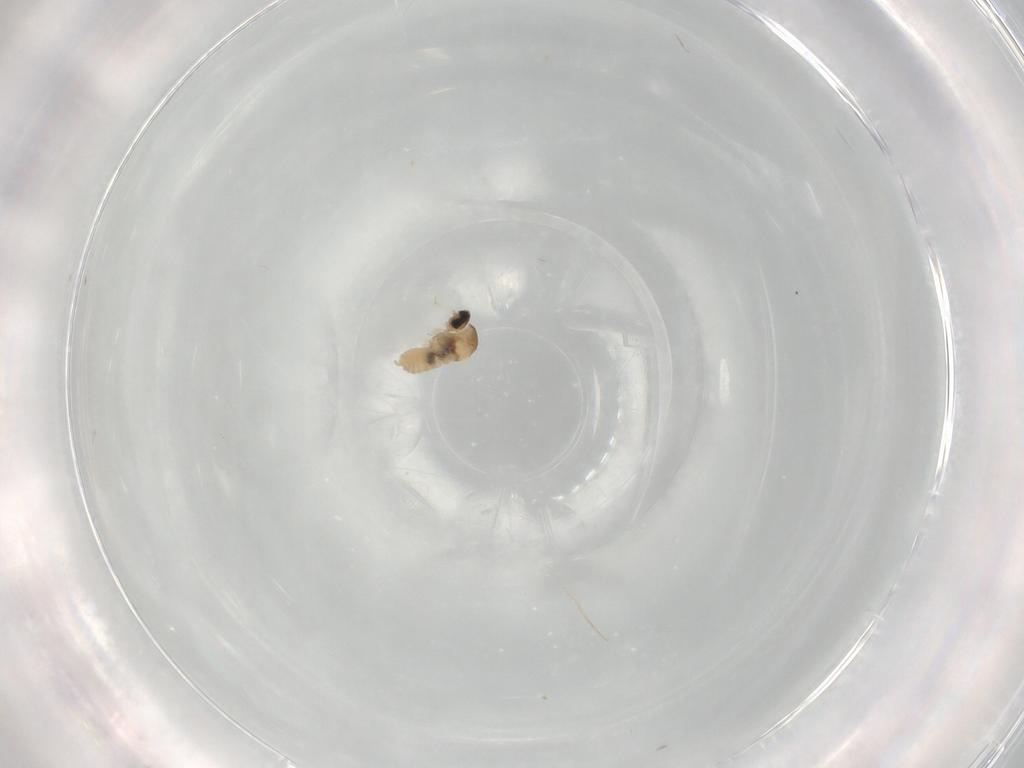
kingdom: Animalia
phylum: Arthropoda
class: Insecta
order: Diptera
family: Cecidomyiidae
